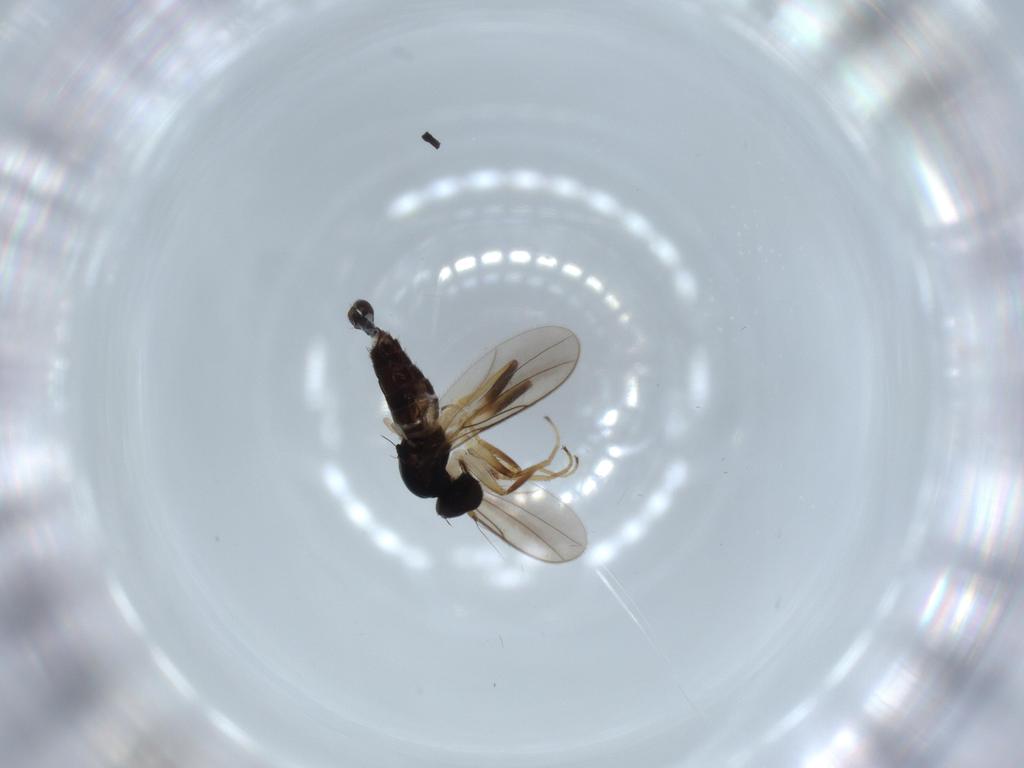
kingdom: Animalia
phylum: Arthropoda
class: Insecta
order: Diptera
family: Hybotidae
